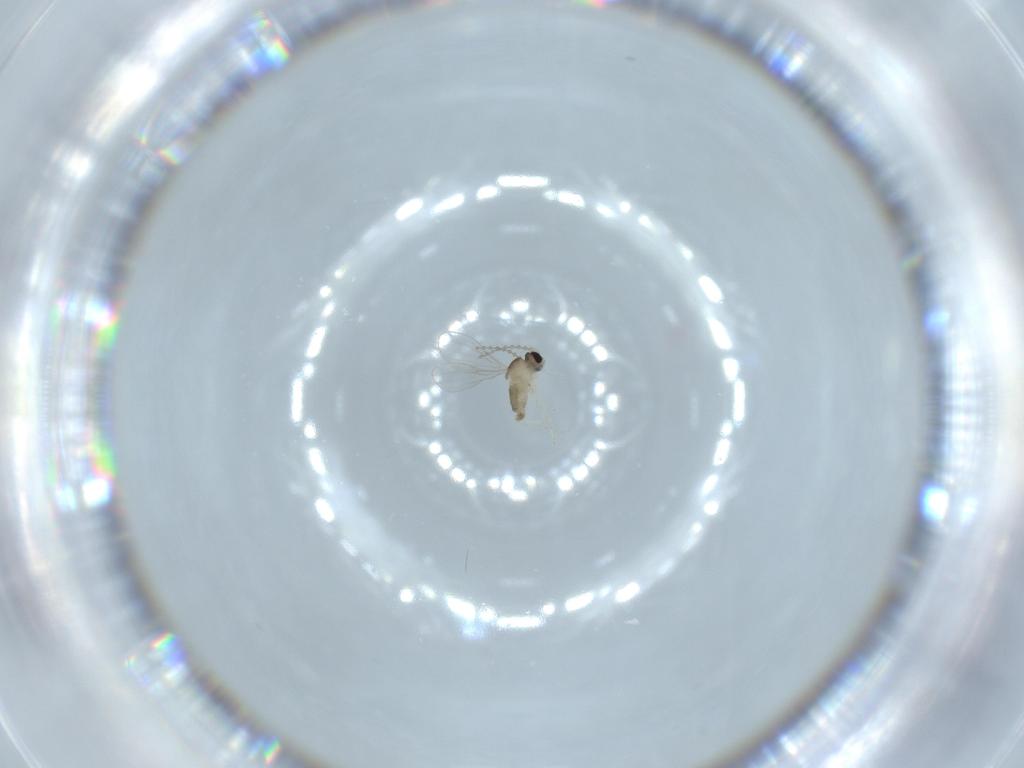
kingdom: Animalia
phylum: Arthropoda
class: Insecta
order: Diptera
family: Cecidomyiidae
